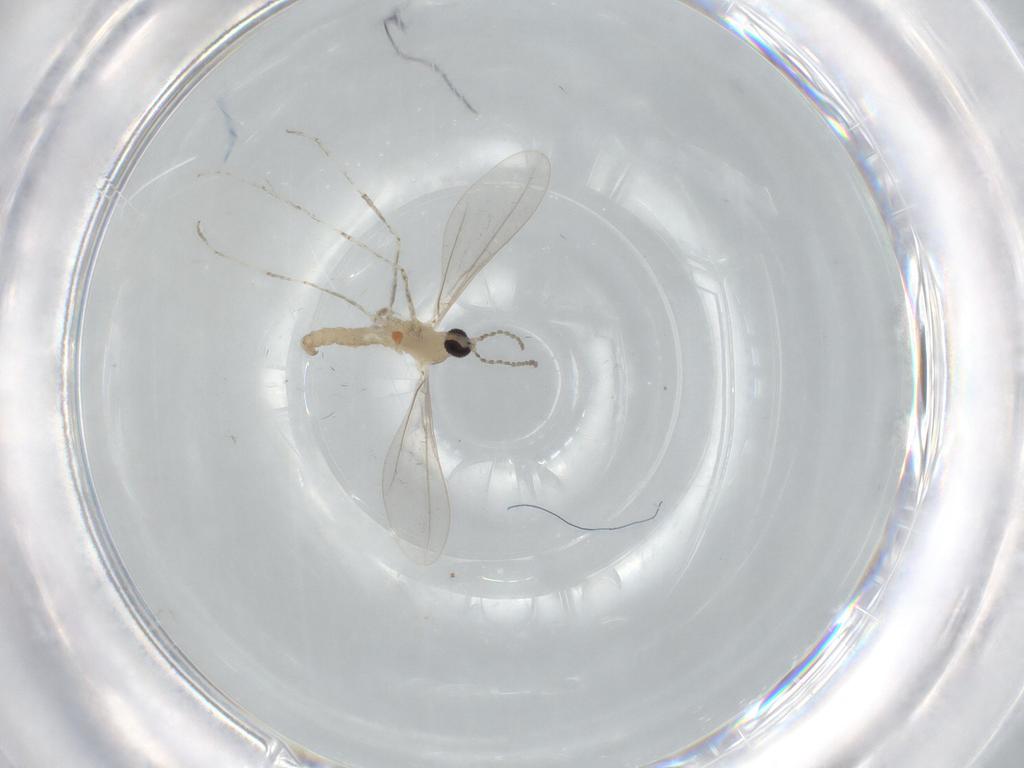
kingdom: Animalia
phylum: Arthropoda
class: Insecta
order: Diptera
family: Cecidomyiidae
